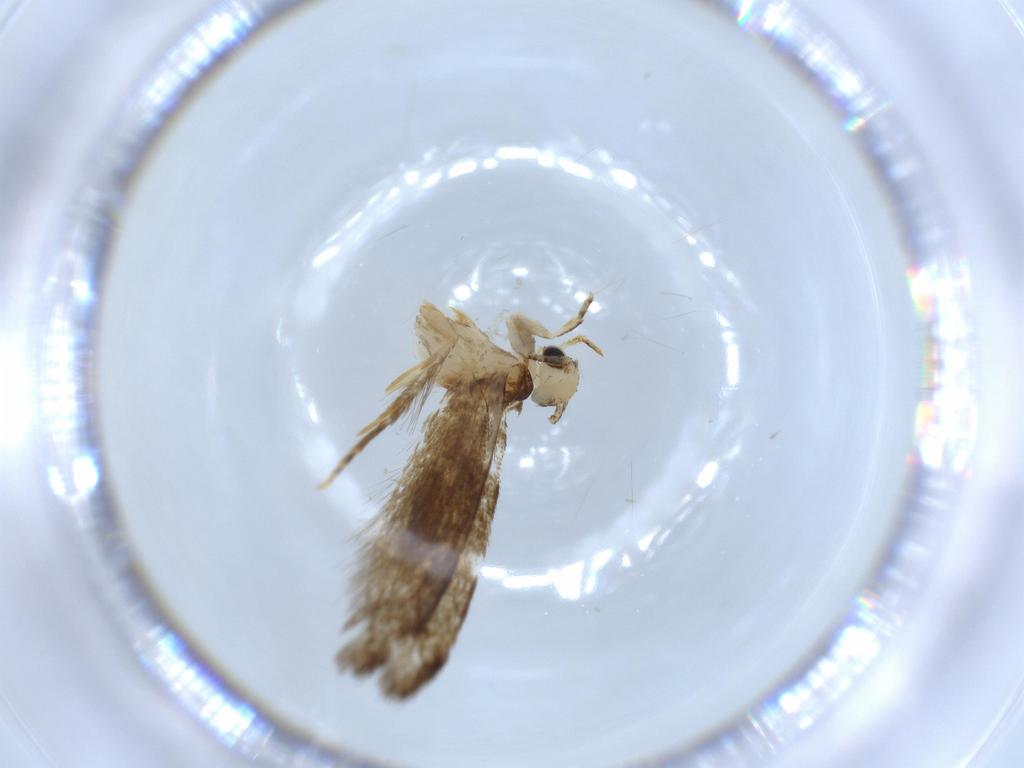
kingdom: Animalia
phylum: Arthropoda
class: Insecta
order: Lepidoptera
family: Tineidae
